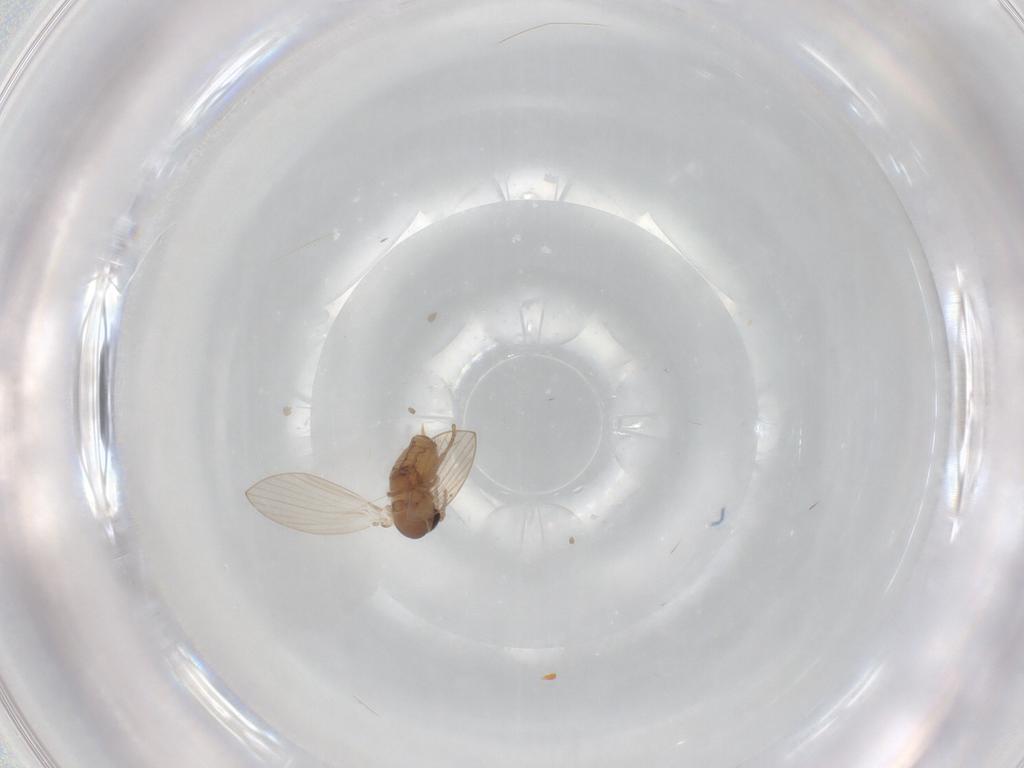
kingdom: Animalia
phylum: Arthropoda
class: Insecta
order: Diptera
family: Psychodidae
